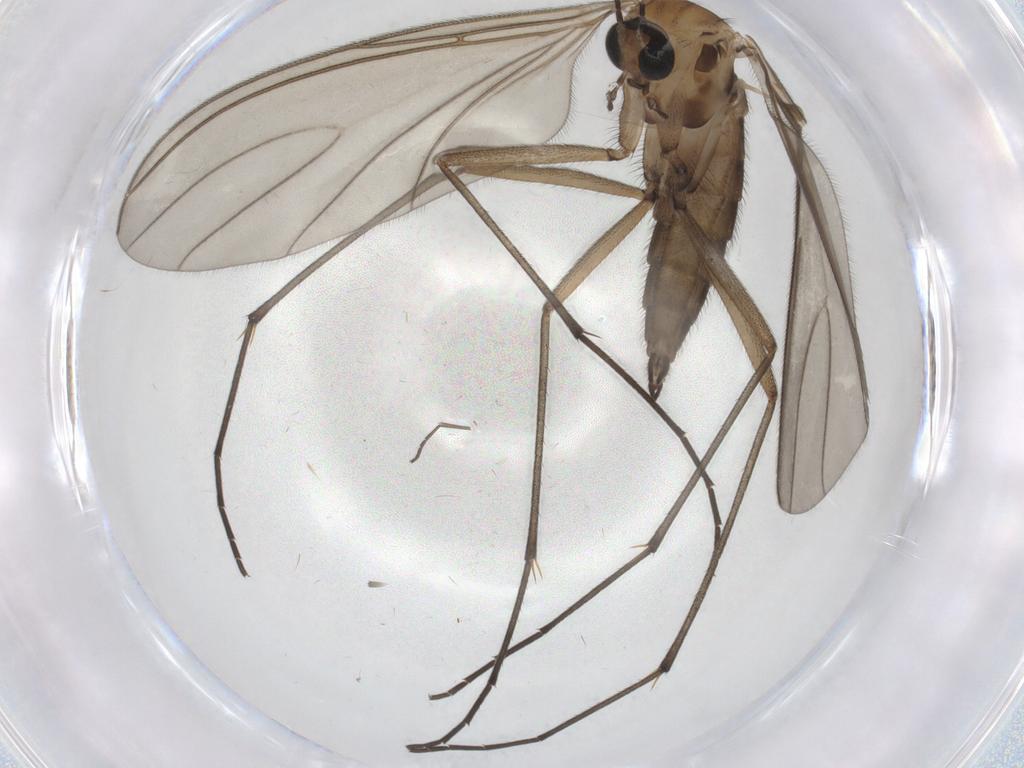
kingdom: Animalia
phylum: Arthropoda
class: Insecta
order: Diptera
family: Sciaridae
